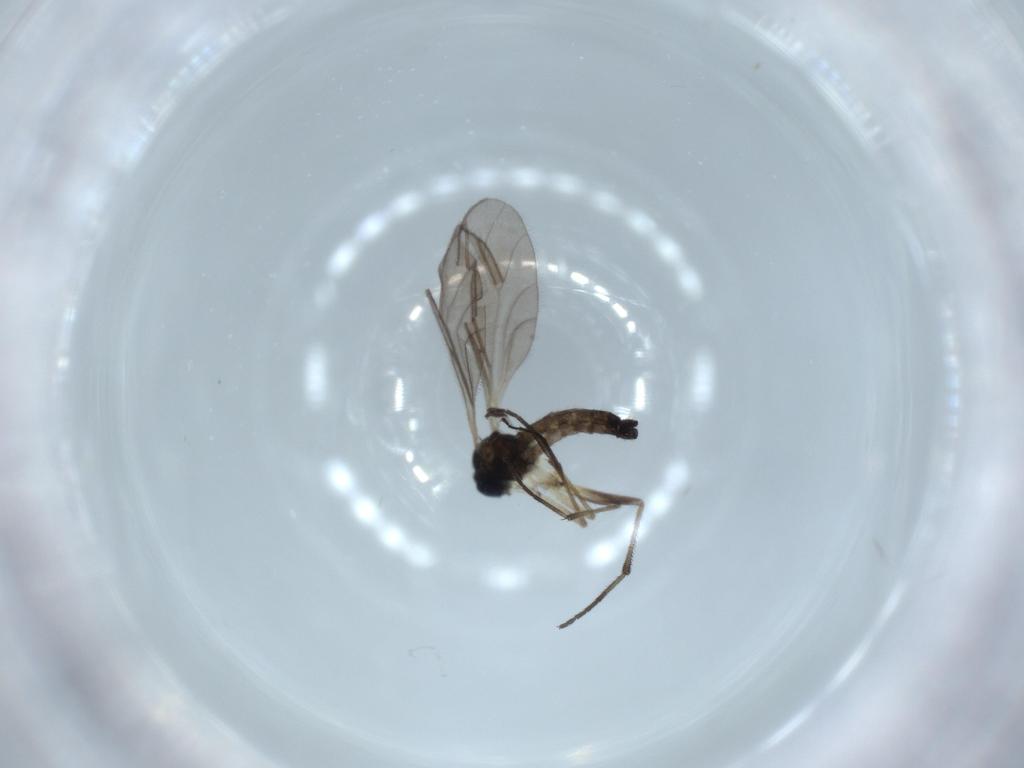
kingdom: Animalia
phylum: Arthropoda
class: Insecta
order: Diptera
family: Sciaridae
